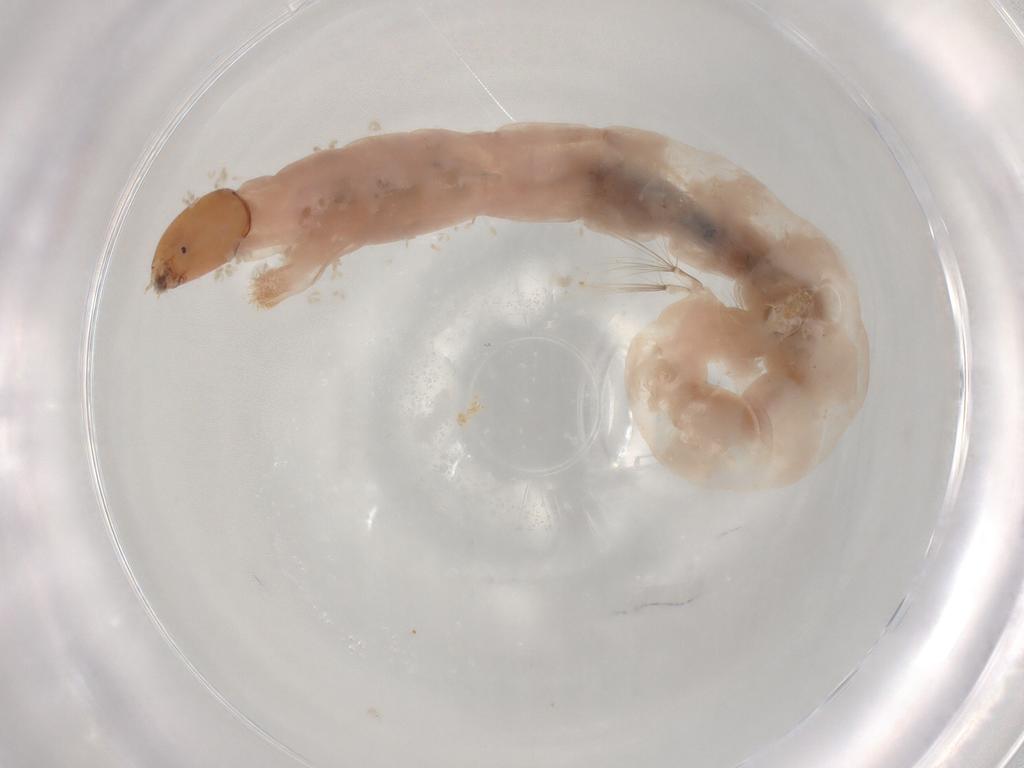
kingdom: Animalia
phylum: Arthropoda
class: Insecta
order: Diptera
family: Chironomidae
